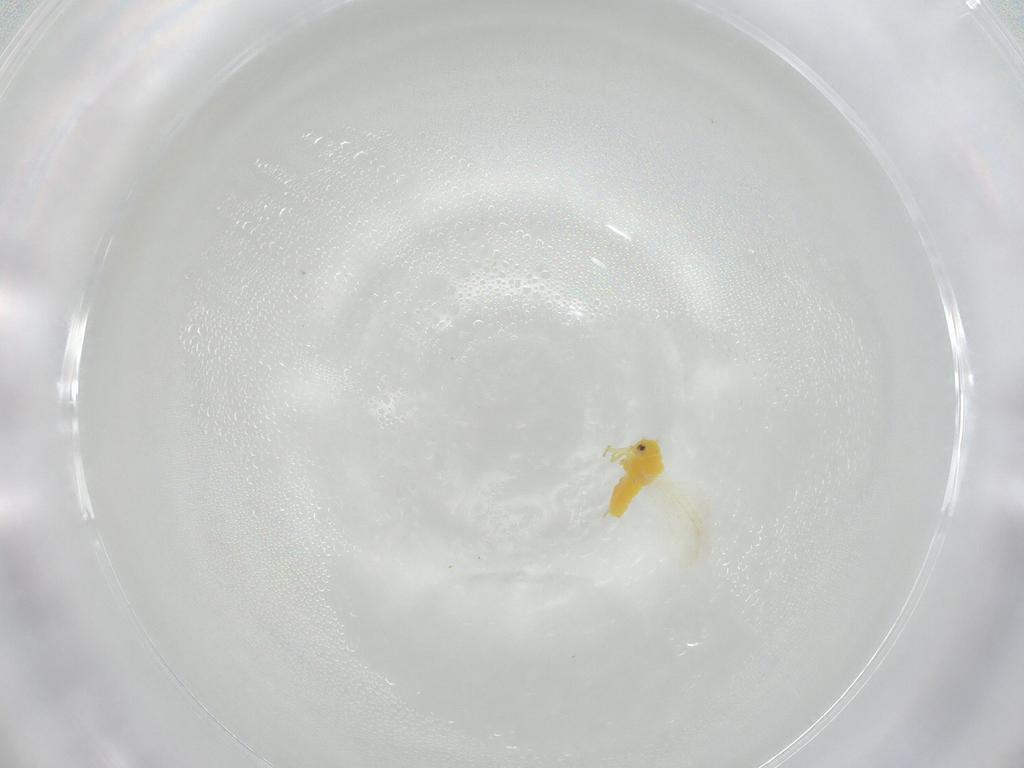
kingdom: Animalia
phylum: Arthropoda
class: Insecta
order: Hemiptera
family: Aleyrodidae
